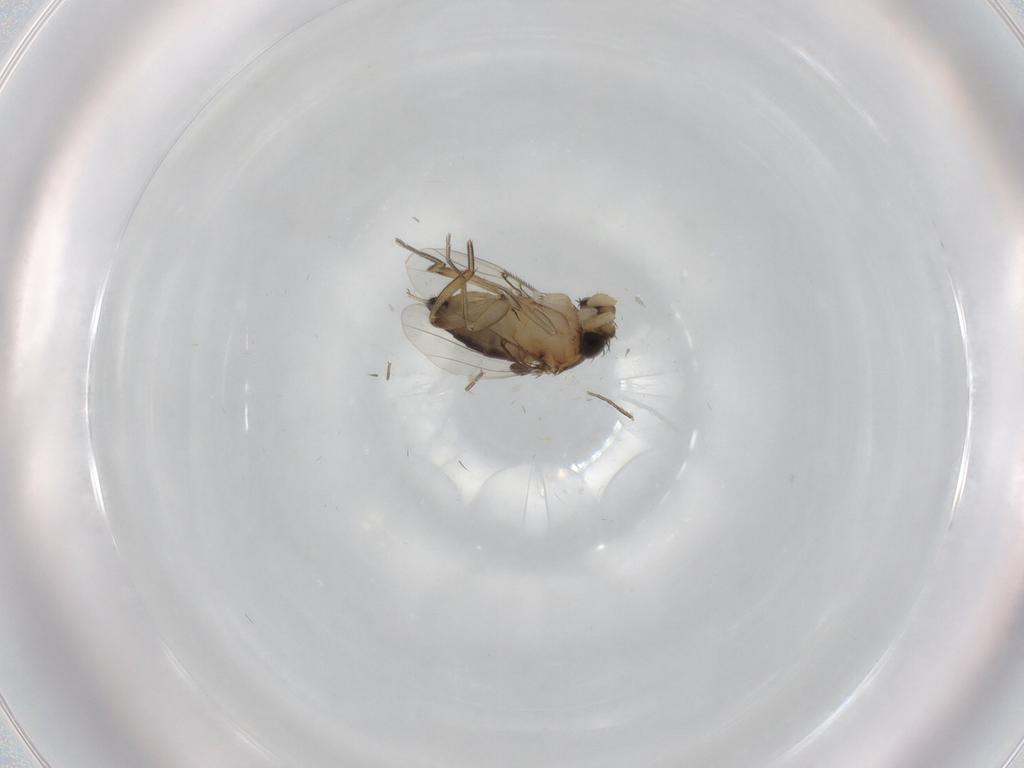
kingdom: Animalia
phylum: Arthropoda
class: Insecta
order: Diptera
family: Phoridae
